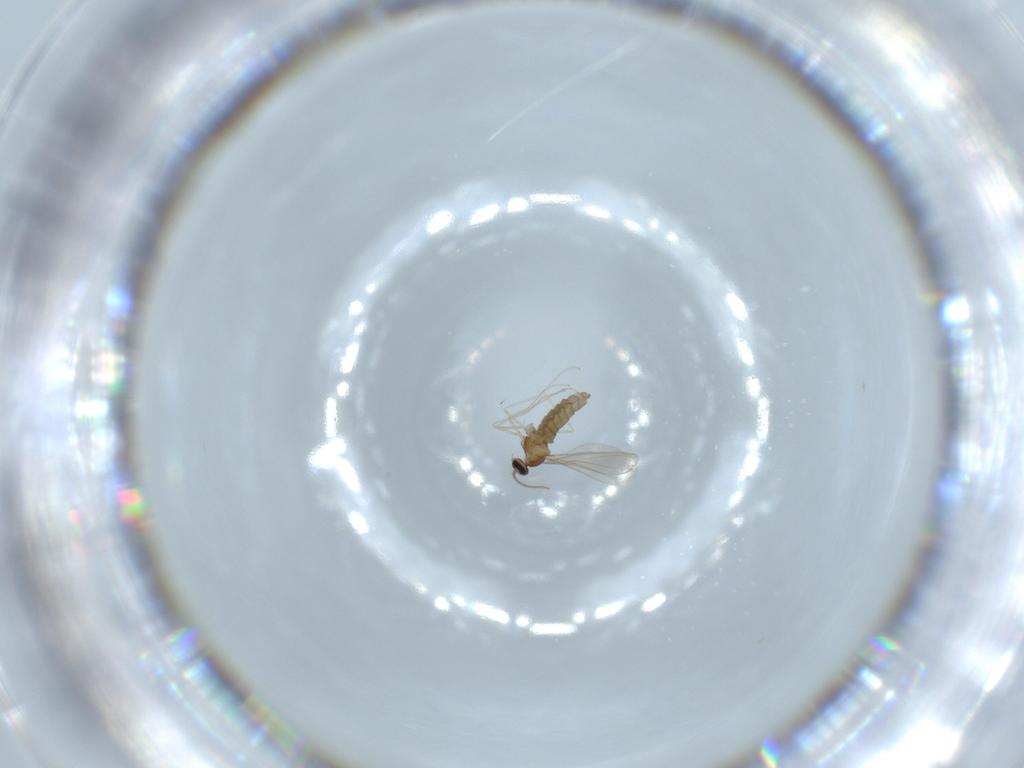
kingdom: Animalia
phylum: Arthropoda
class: Insecta
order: Diptera
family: Cecidomyiidae
